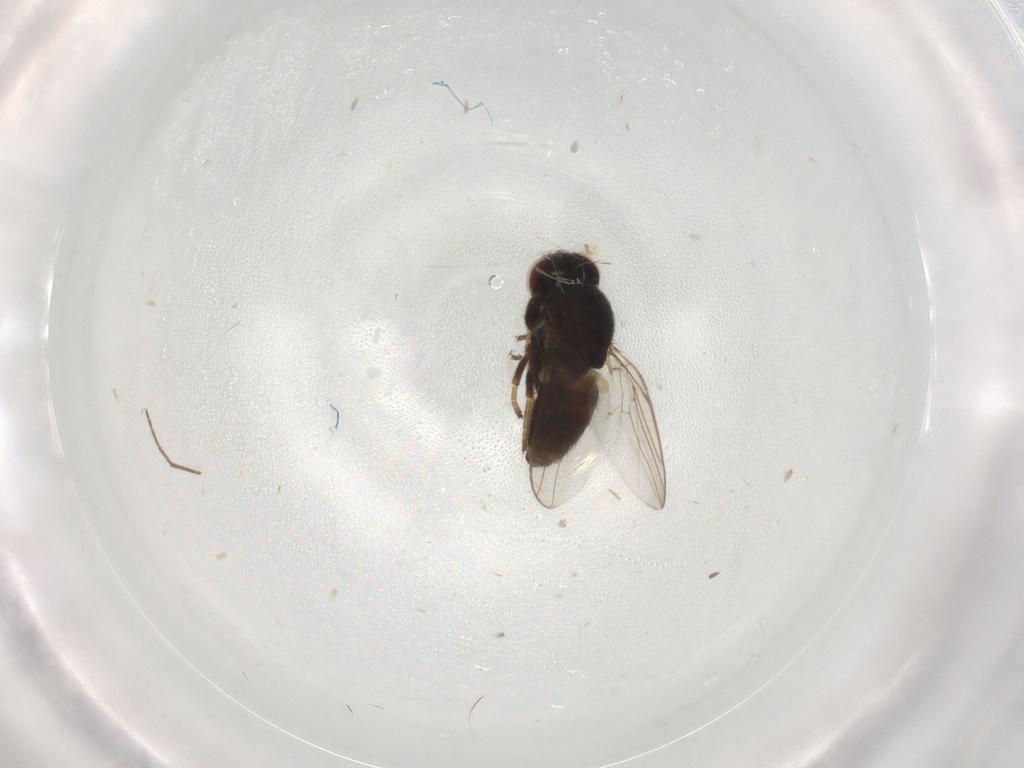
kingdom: Animalia
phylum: Arthropoda
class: Insecta
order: Diptera
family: Chloropidae
